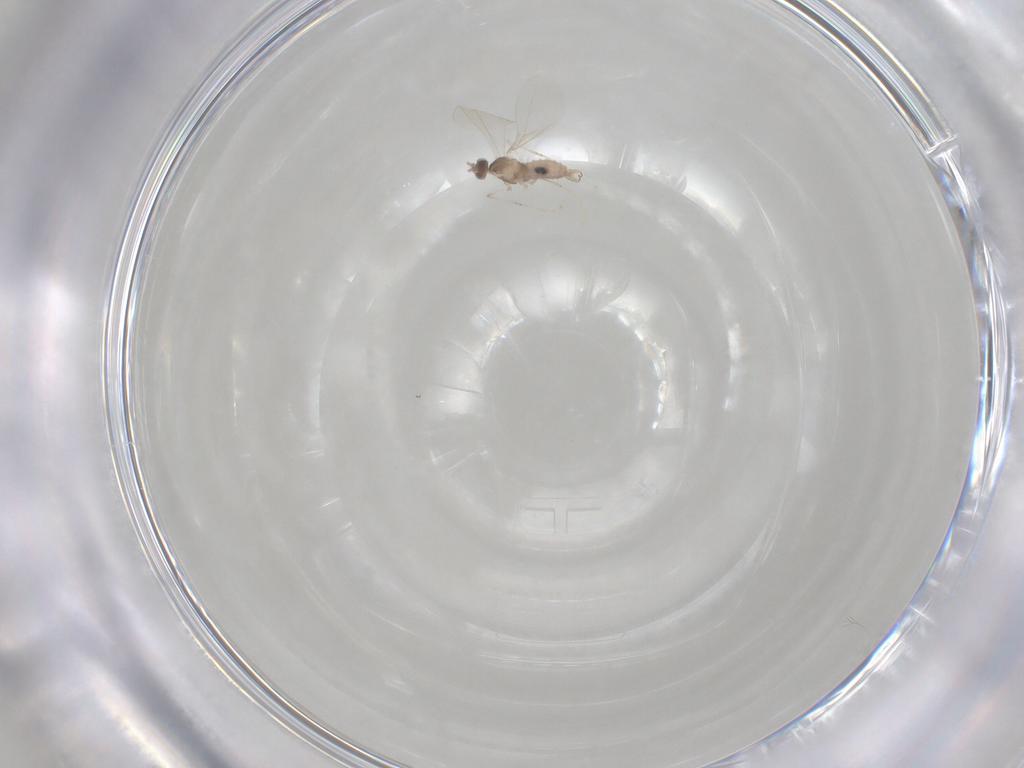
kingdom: Animalia
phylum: Arthropoda
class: Insecta
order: Diptera
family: Cecidomyiidae
